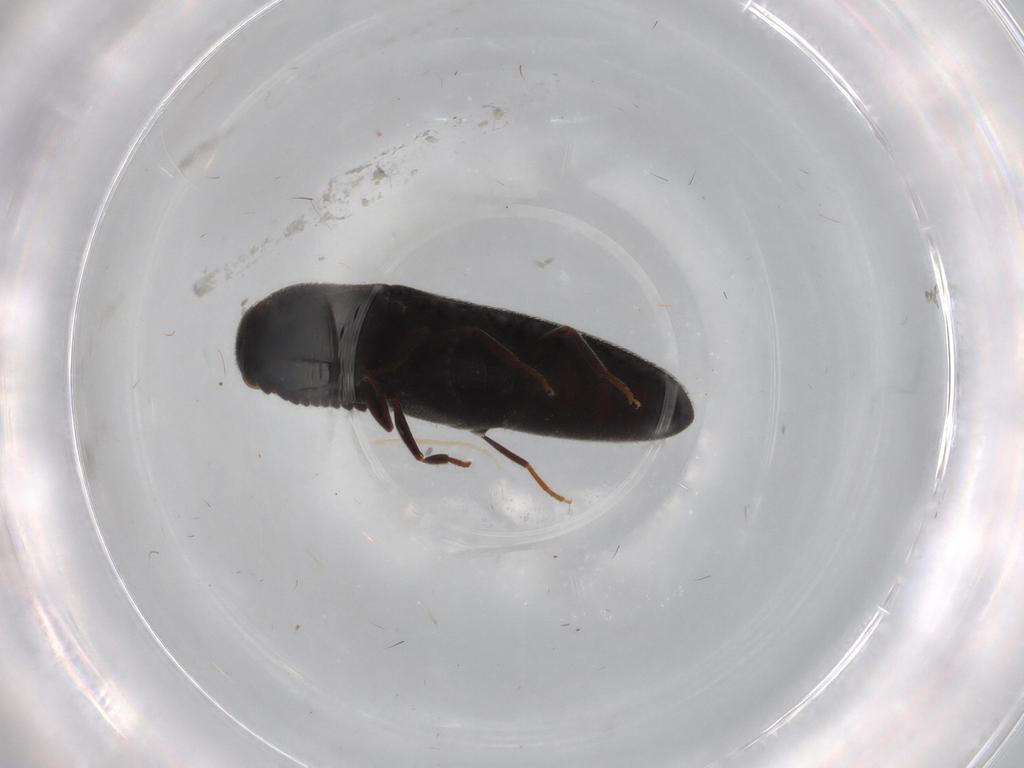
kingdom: Animalia
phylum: Arthropoda
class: Insecta
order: Coleoptera
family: Eucnemidae
